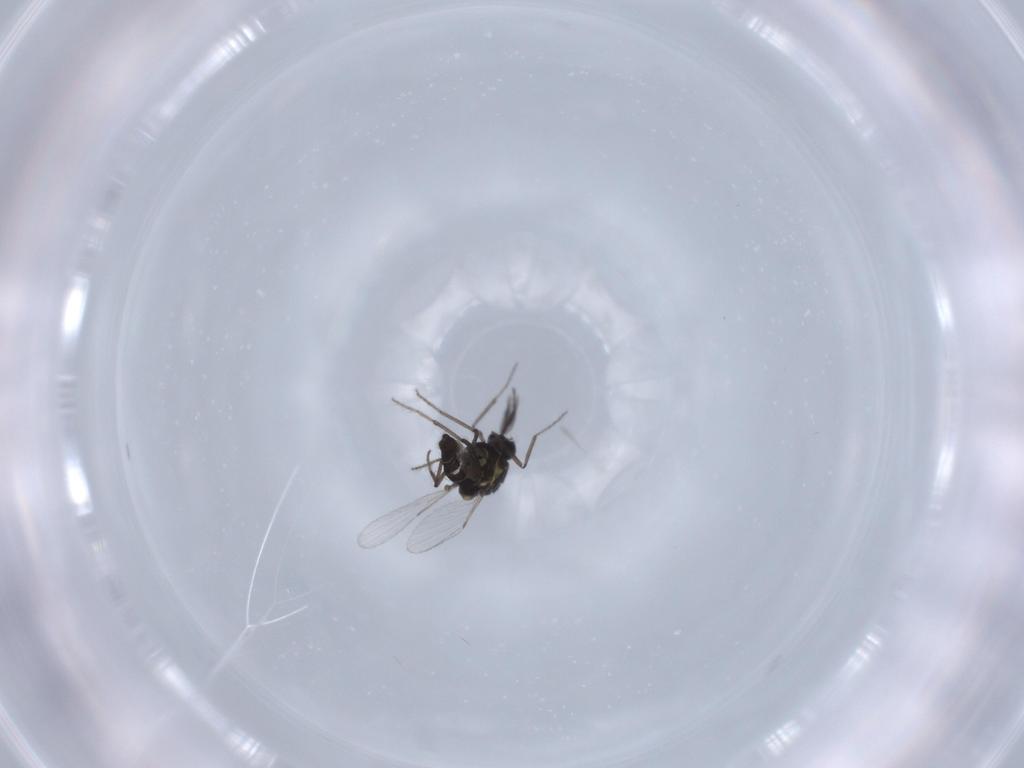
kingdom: Animalia
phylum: Arthropoda
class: Insecta
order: Diptera
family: Ceratopogonidae
